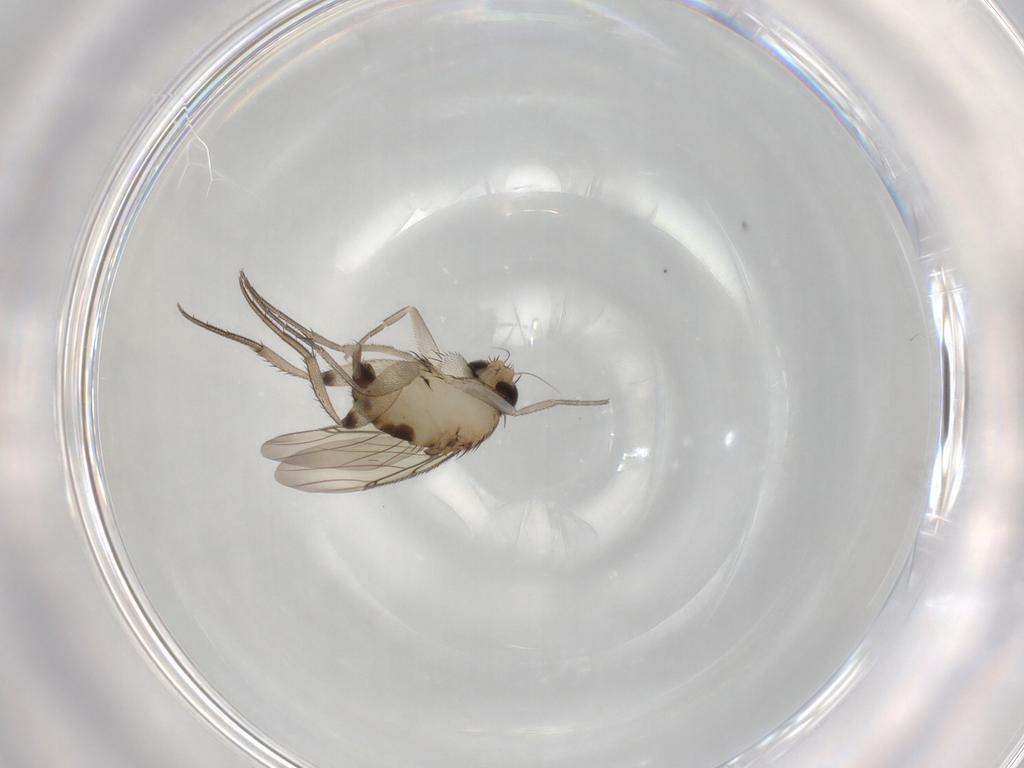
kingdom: Animalia
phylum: Arthropoda
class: Insecta
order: Diptera
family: Phoridae
